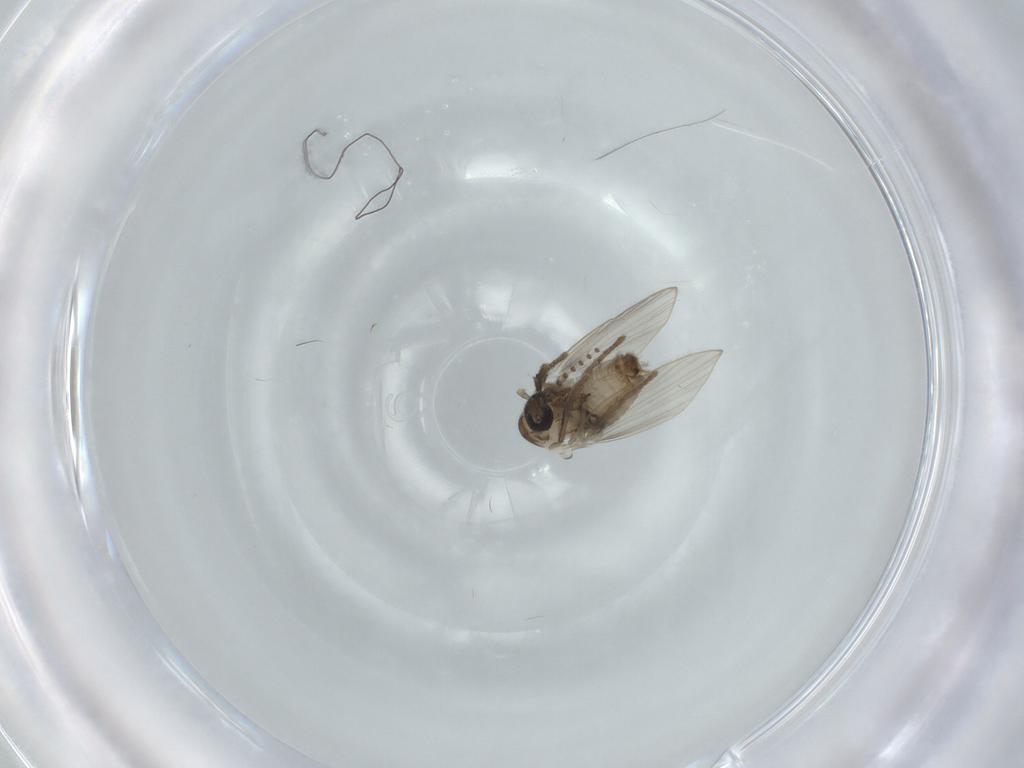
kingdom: Animalia
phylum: Arthropoda
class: Insecta
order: Diptera
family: Psychodidae
